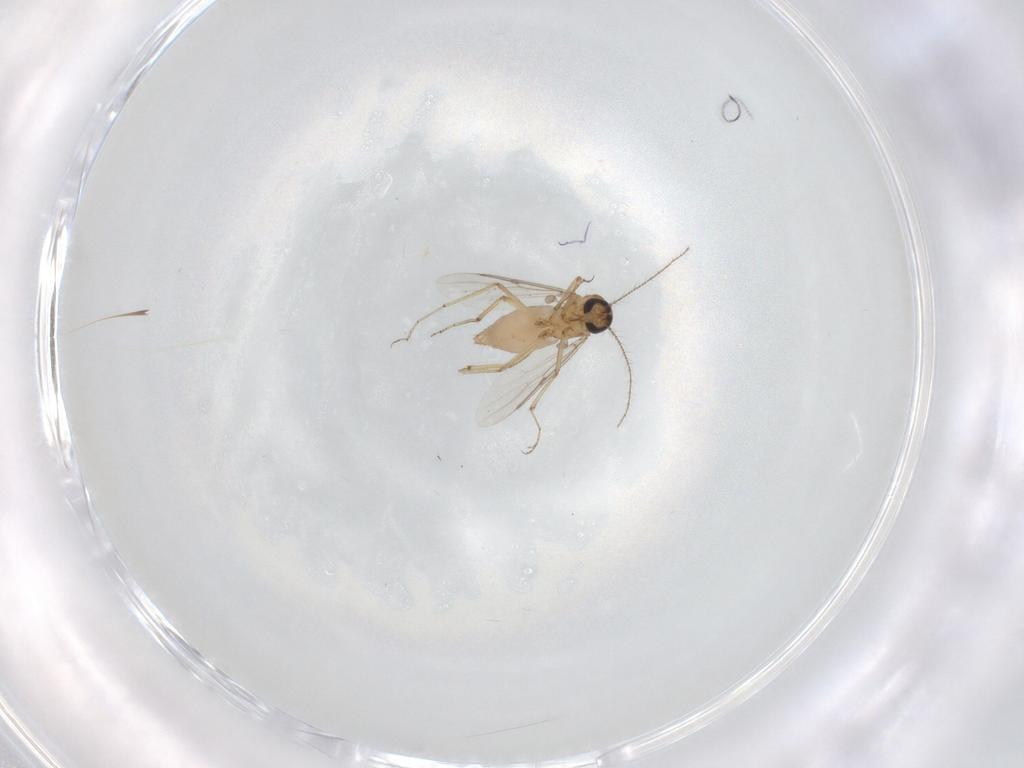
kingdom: Animalia
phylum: Arthropoda
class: Insecta
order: Diptera
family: Ceratopogonidae
